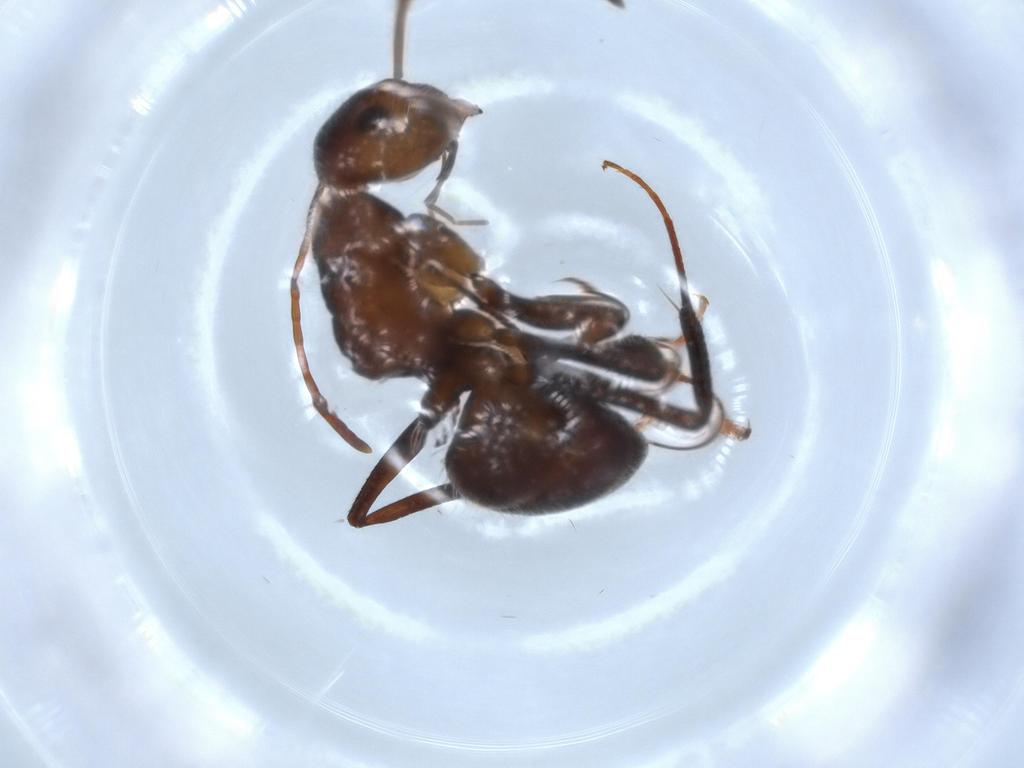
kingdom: Animalia
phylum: Arthropoda
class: Insecta
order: Hymenoptera
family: Formicidae
